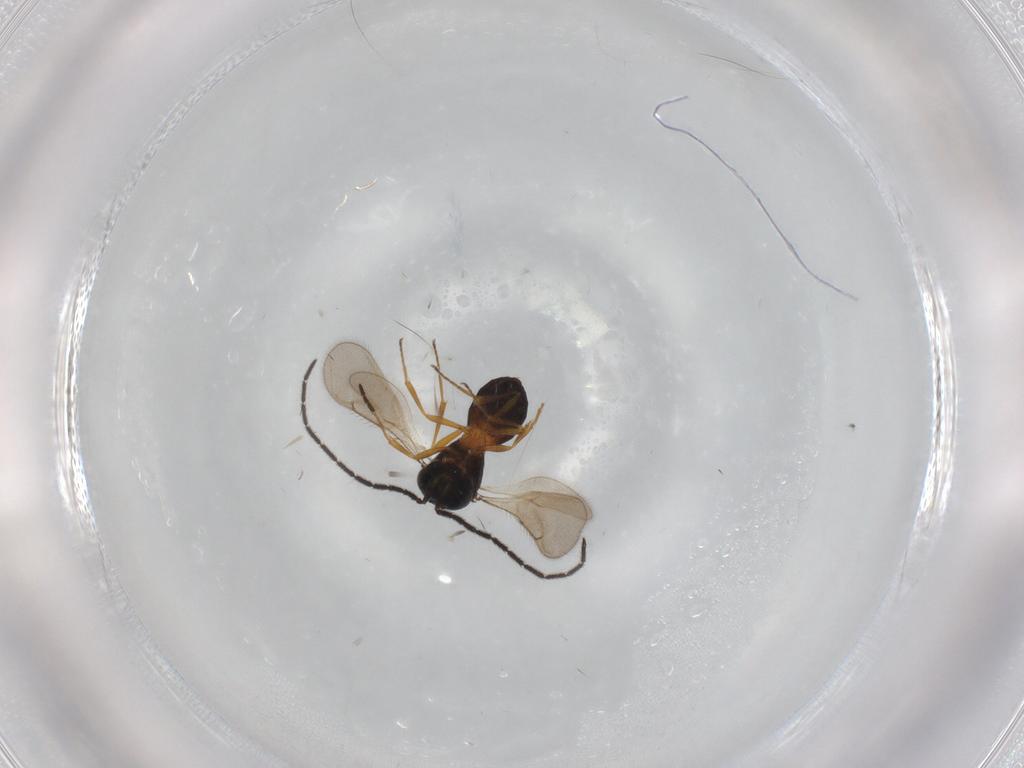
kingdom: Animalia
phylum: Arthropoda
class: Insecta
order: Hymenoptera
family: Scelionidae
